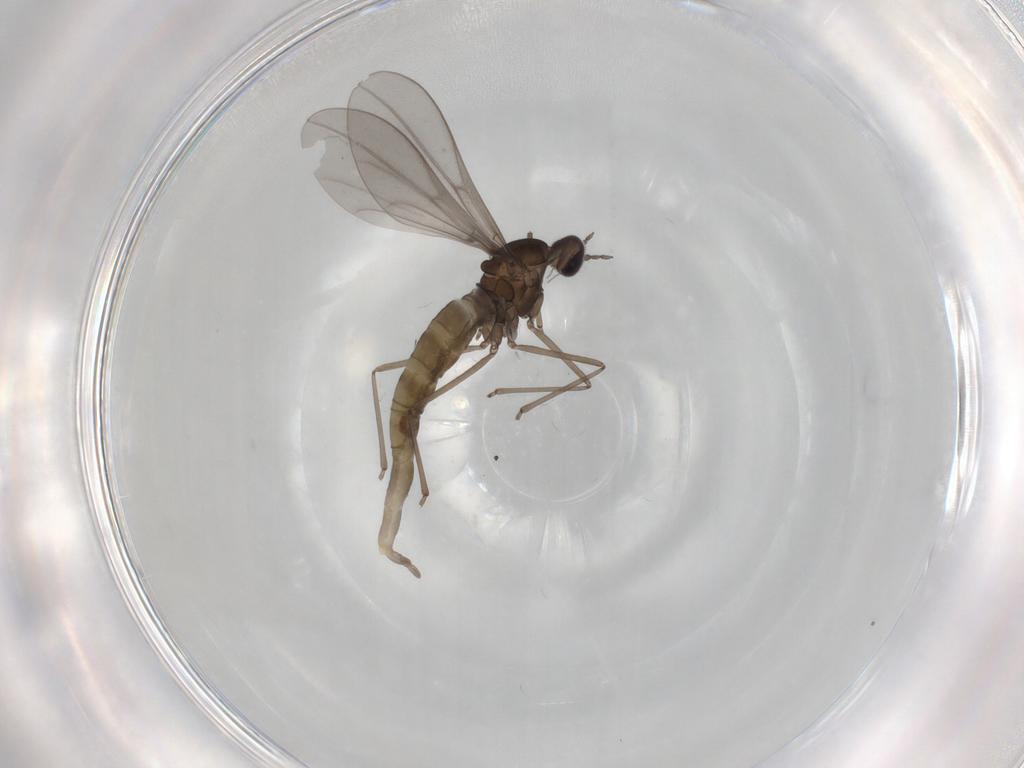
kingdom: Animalia
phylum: Arthropoda
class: Insecta
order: Diptera
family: Cecidomyiidae
